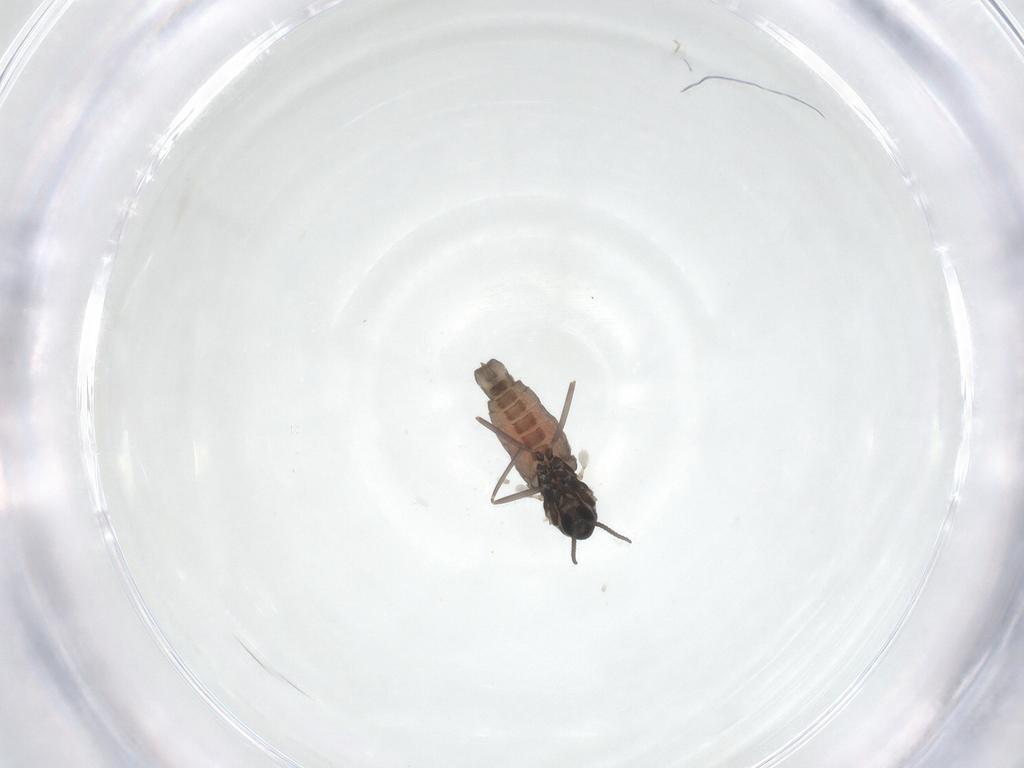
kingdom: Animalia
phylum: Arthropoda
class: Insecta
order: Diptera
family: Cecidomyiidae
